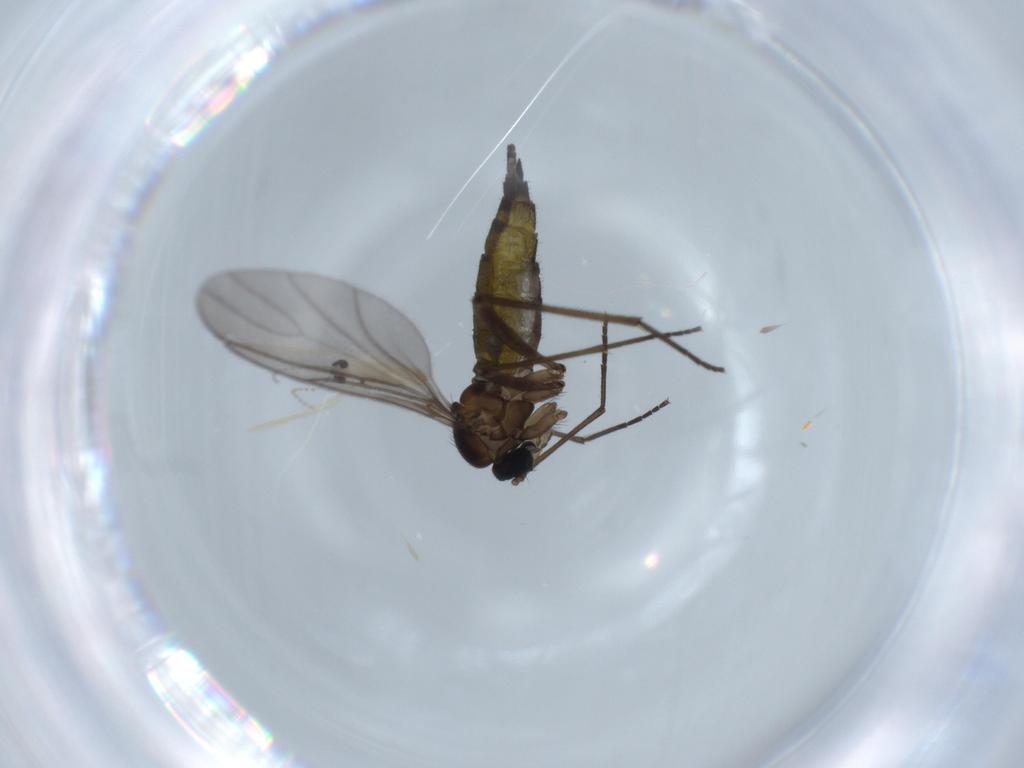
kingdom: Animalia
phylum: Arthropoda
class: Insecta
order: Diptera
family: Cecidomyiidae
